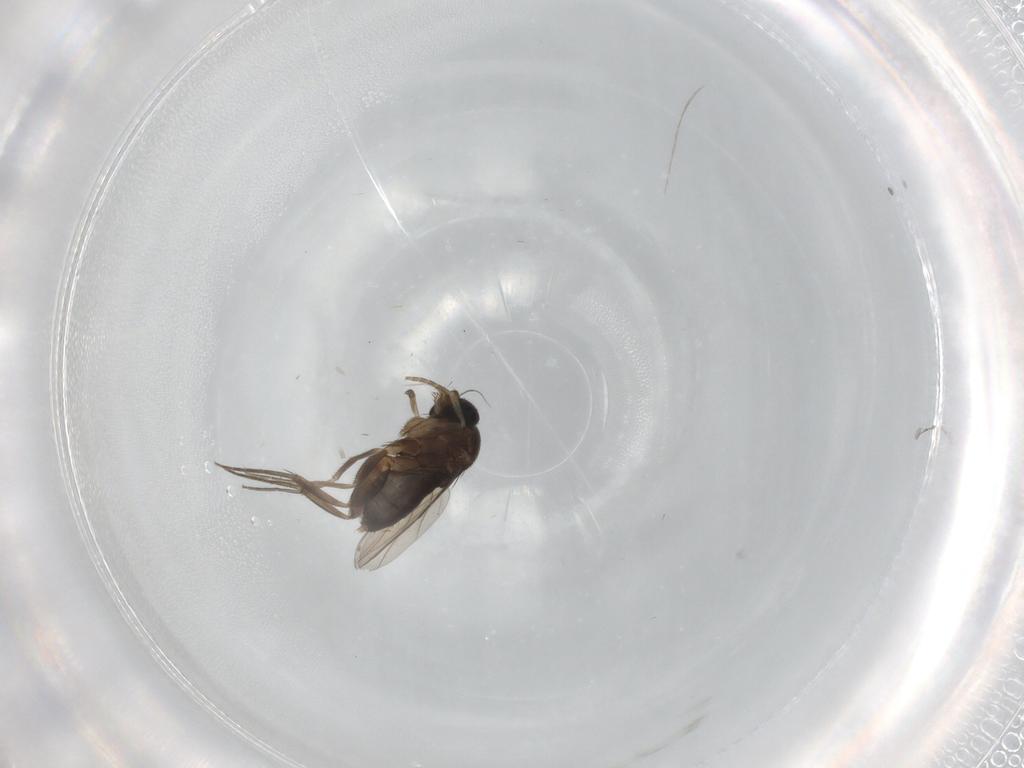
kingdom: Animalia
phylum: Arthropoda
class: Insecta
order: Diptera
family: Phoridae
